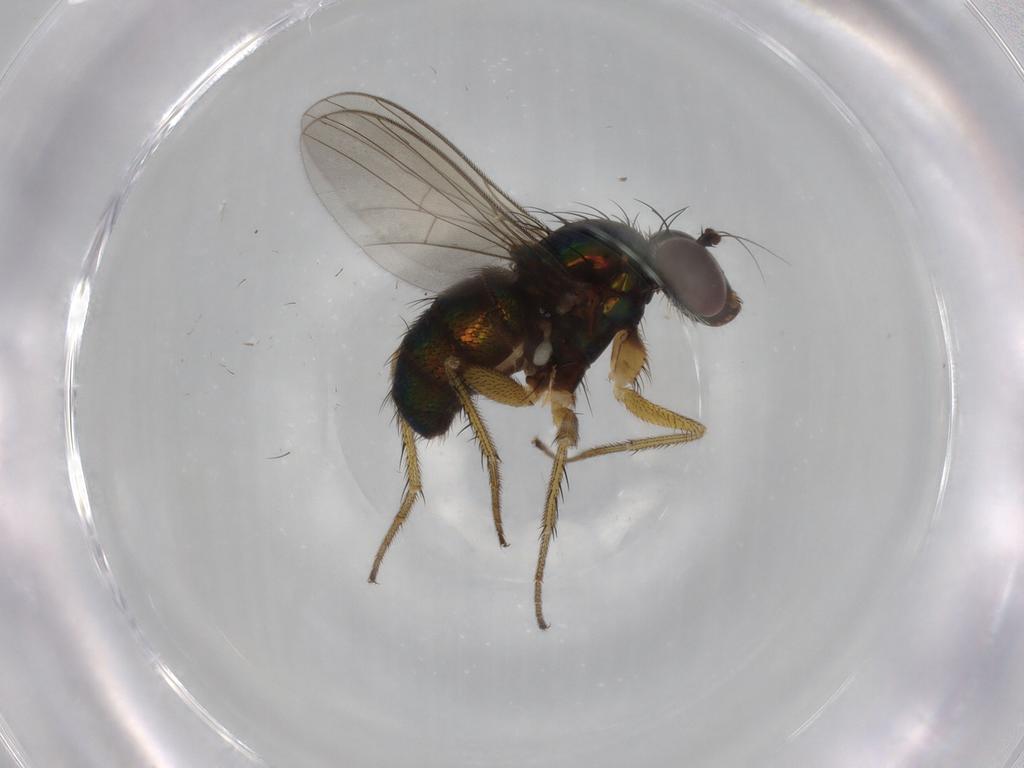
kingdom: Animalia
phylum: Arthropoda
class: Insecta
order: Diptera
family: Dolichopodidae
